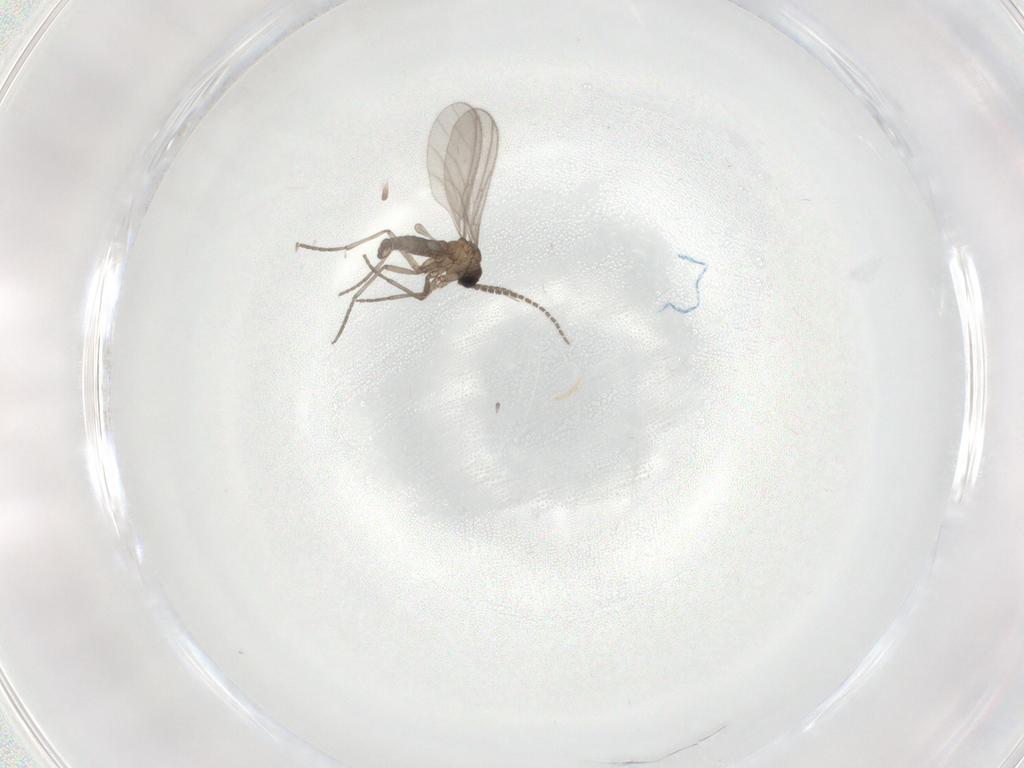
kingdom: Animalia
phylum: Arthropoda
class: Insecta
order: Diptera
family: Sciaridae
